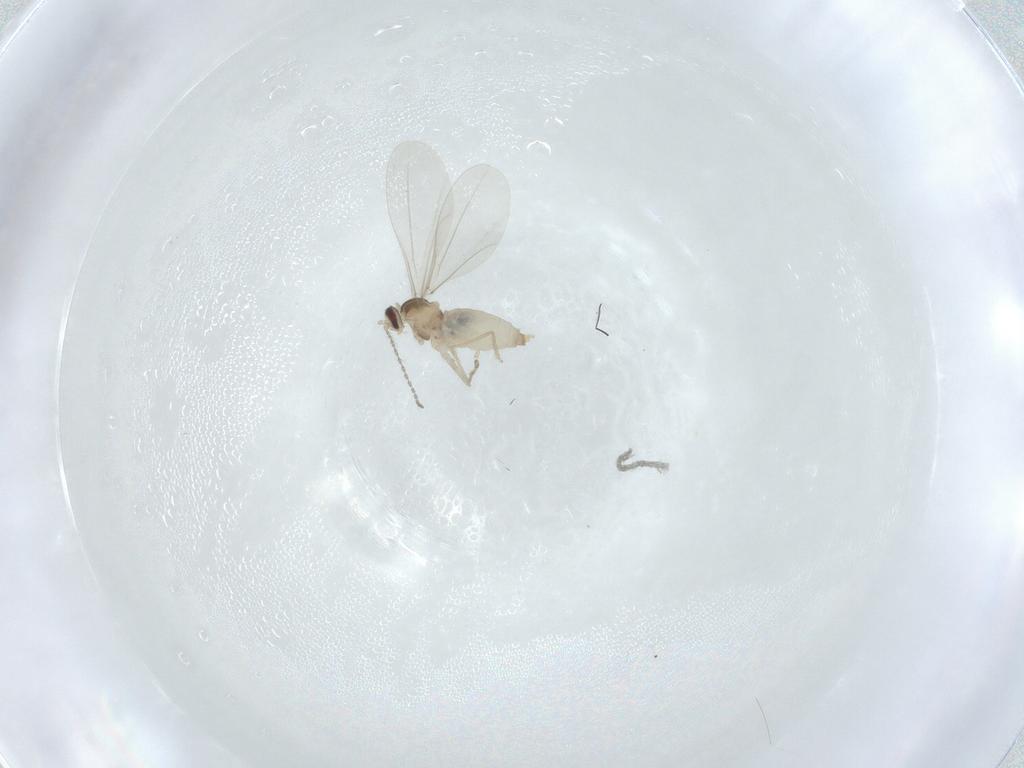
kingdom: Animalia
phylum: Arthropoda
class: Insecta
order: Diptera
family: Cecidomyiidae
